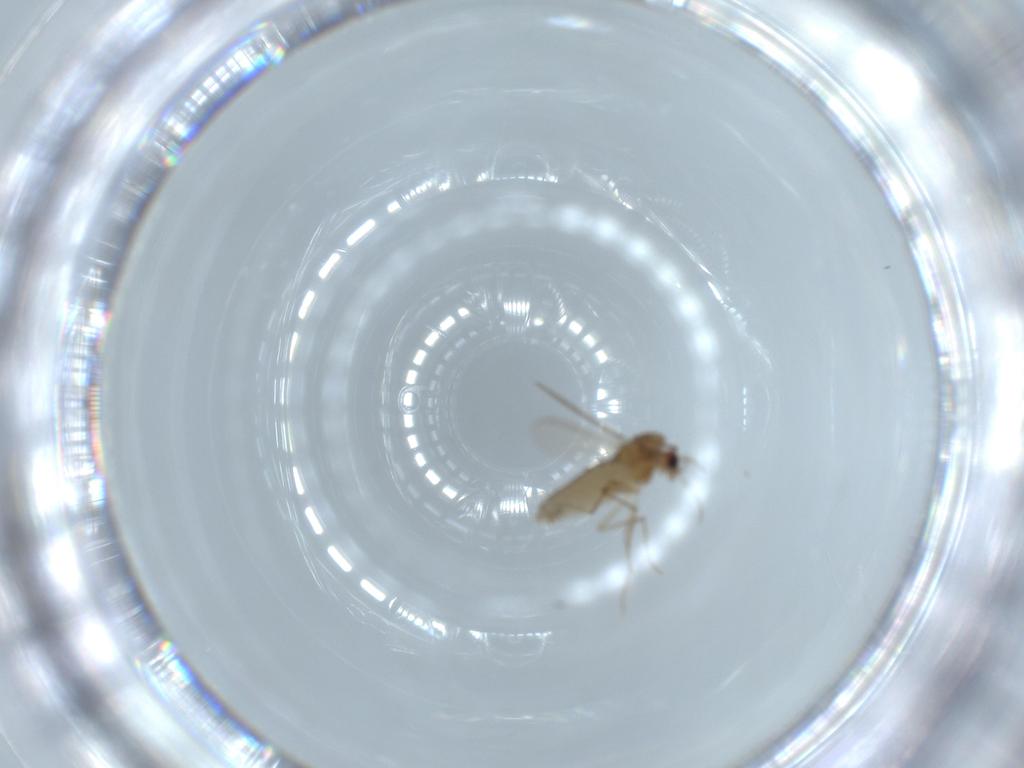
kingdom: Animalia
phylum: Arthropoda
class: Insecta
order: Diptera
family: Chironomidae
